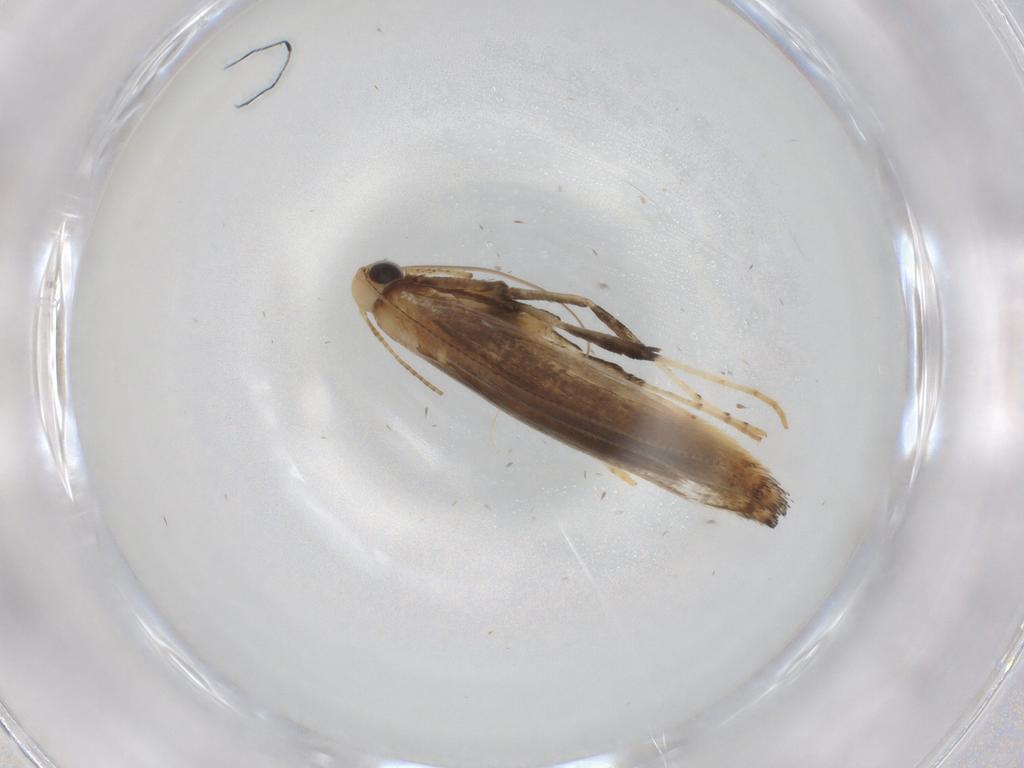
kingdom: Animalia
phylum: Arthropoda
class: Insecta
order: Lepidoptera
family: Gracillariidae
